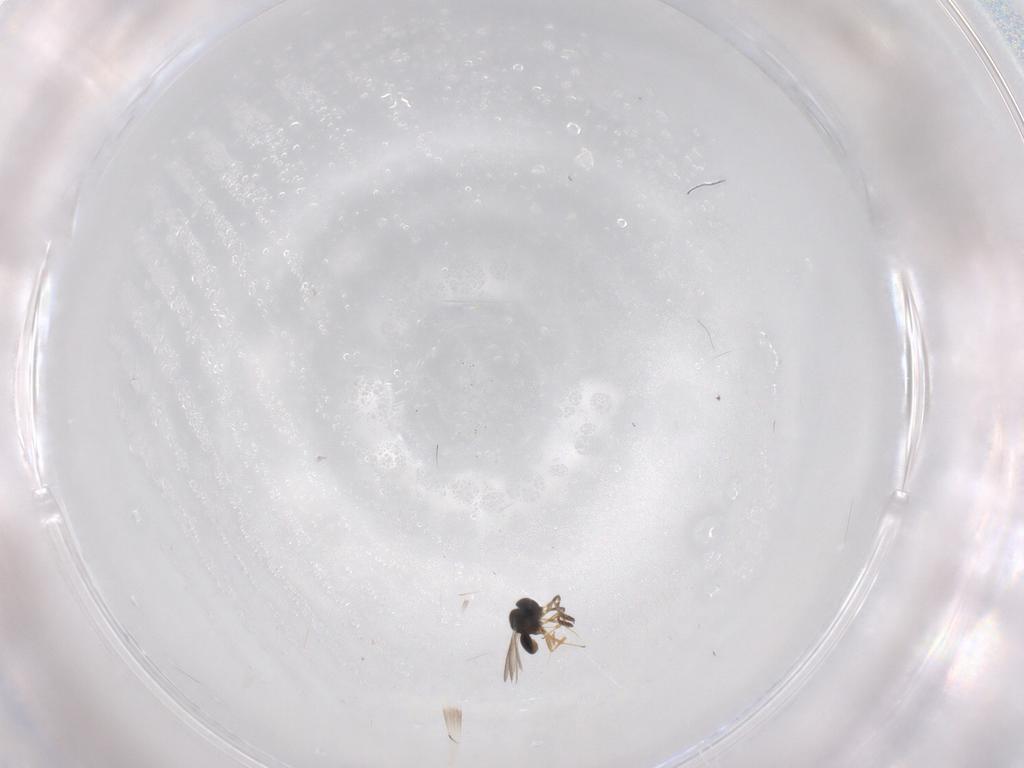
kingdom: Animalia
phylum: Arthropoda
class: Insecta
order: Hymenoptera
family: Scelionidae
